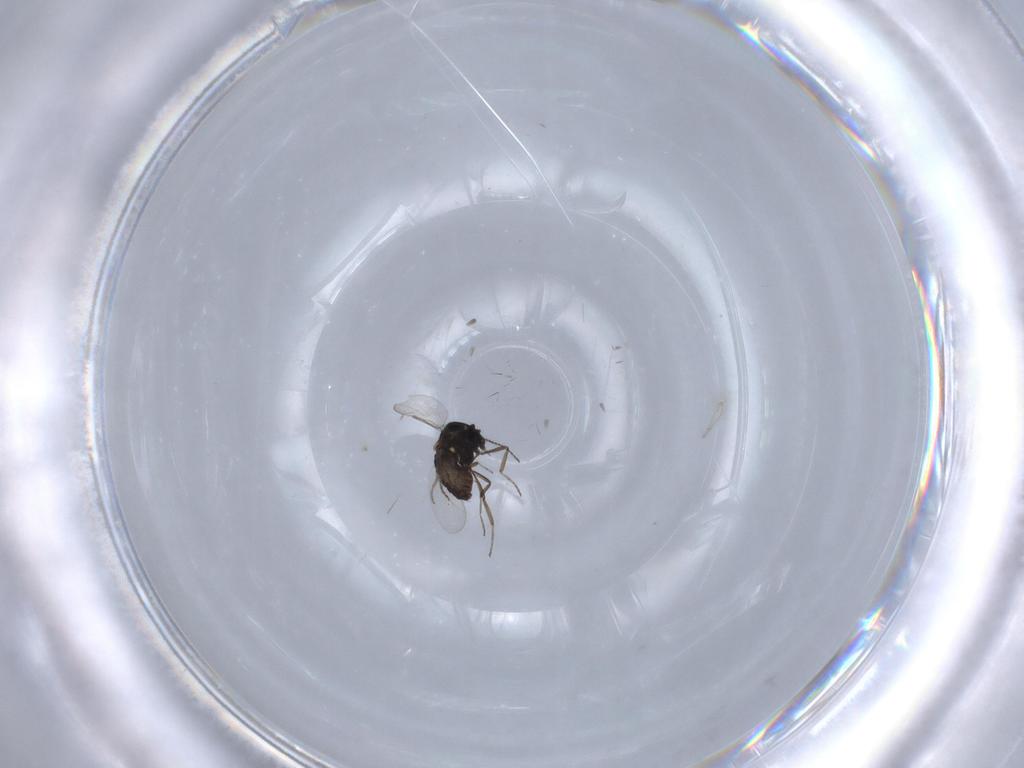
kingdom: Animalia
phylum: Arthropoda
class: Insecta
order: Diptera
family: Phoridae
